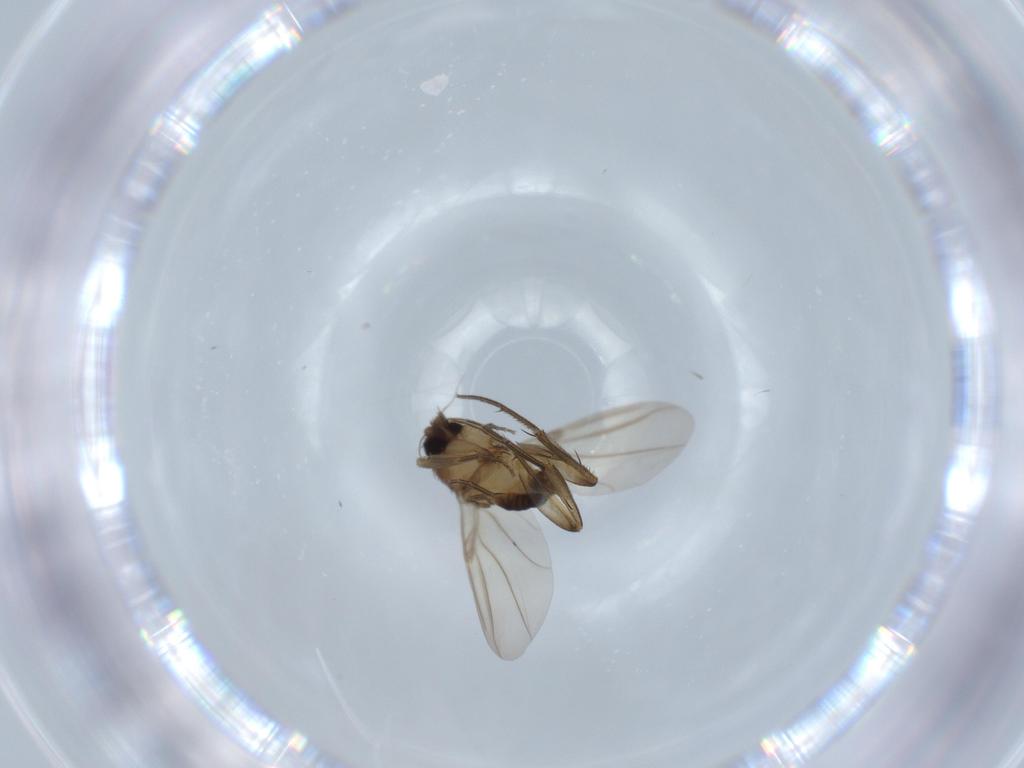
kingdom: Animalia
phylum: Arthropoda
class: Insecta
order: Diptera
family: Phoridae
